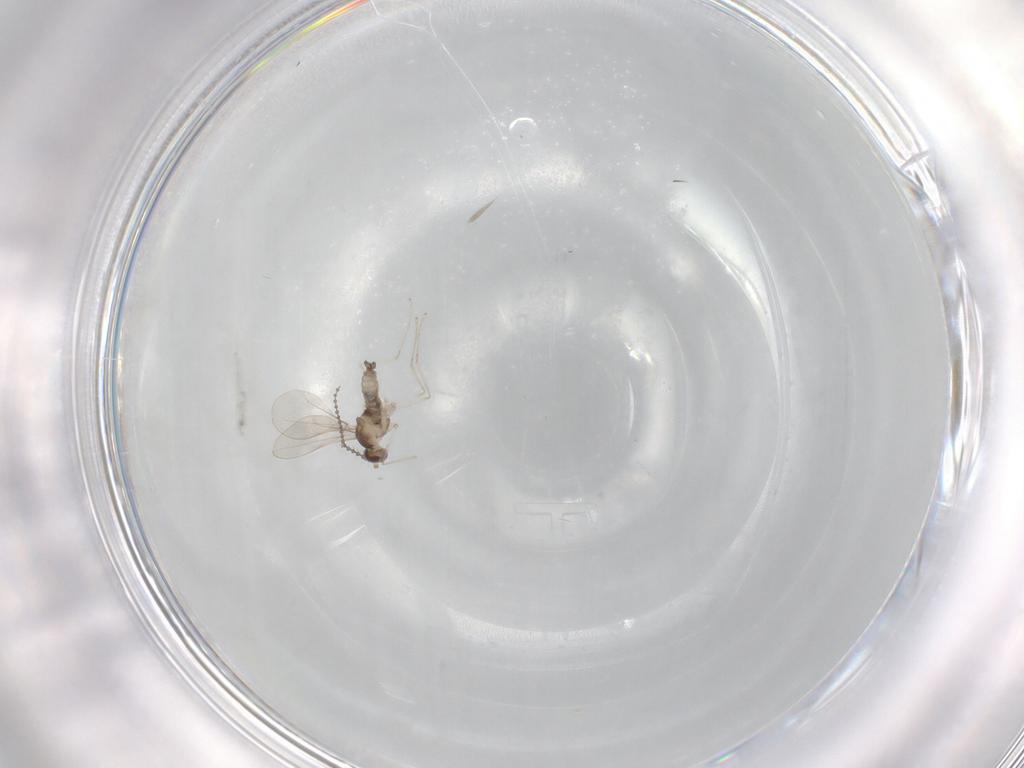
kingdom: Animalia
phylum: Arthropoda
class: Insecta
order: Diptera
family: Cecidomyiidae
